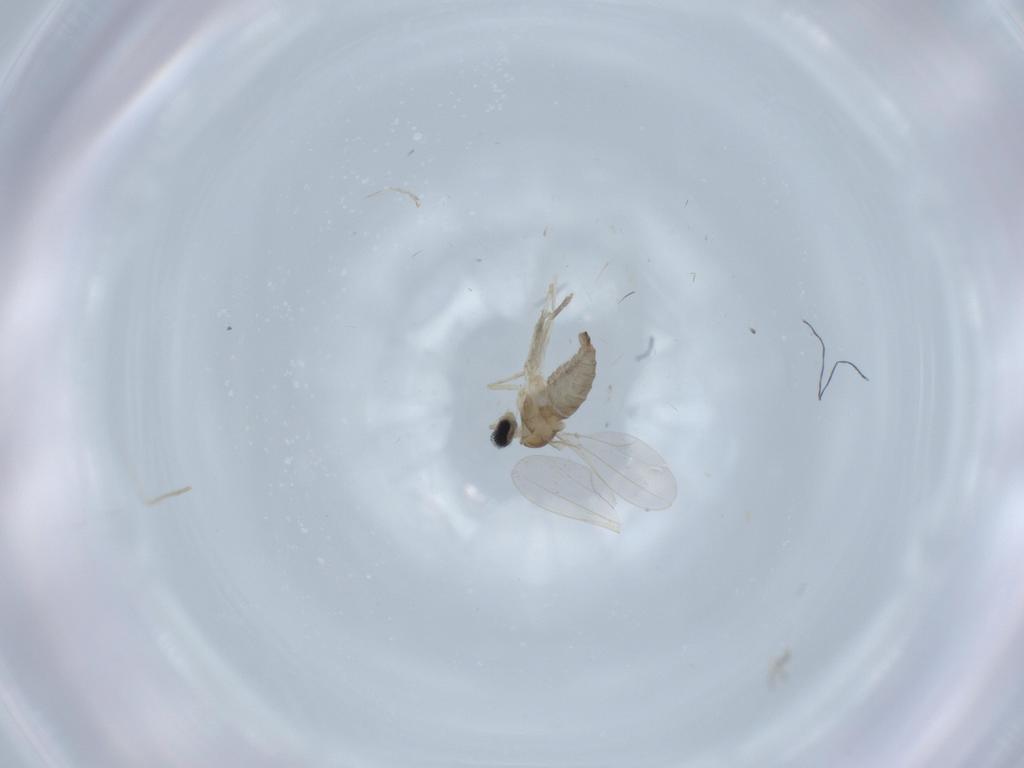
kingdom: Animalia
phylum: Arthropoda
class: Insecta
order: Diptera
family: Cecidomyiidae
